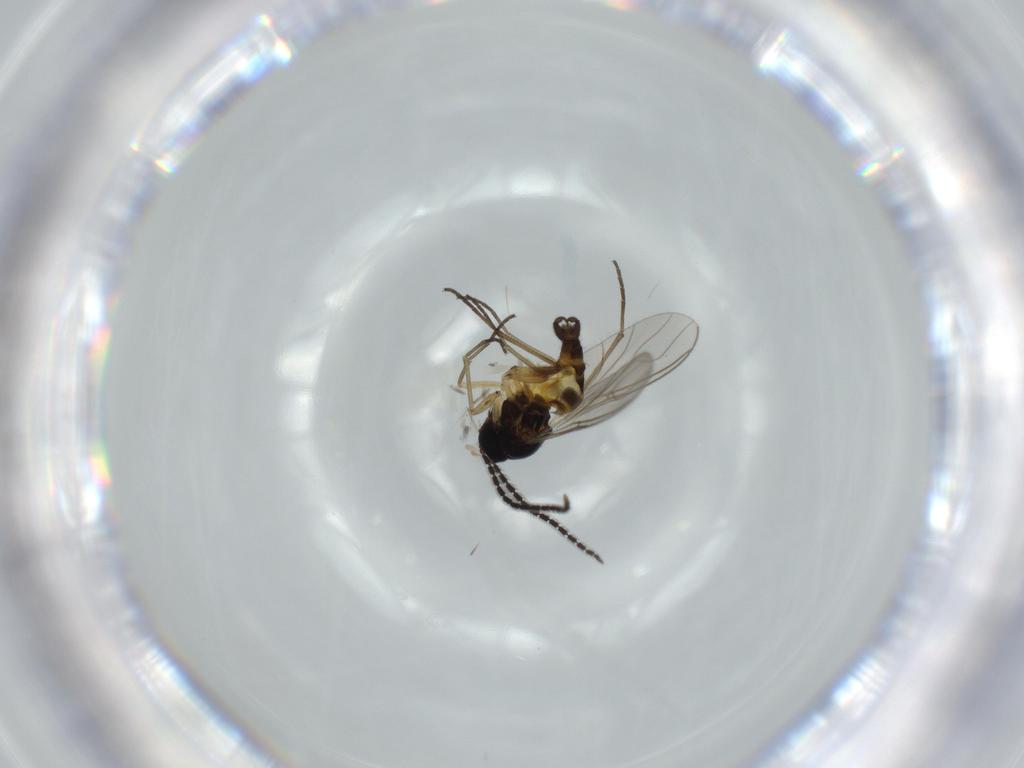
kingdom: Animalia
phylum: Arthropoda
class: Insecta
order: Diptera
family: Sciaridae
